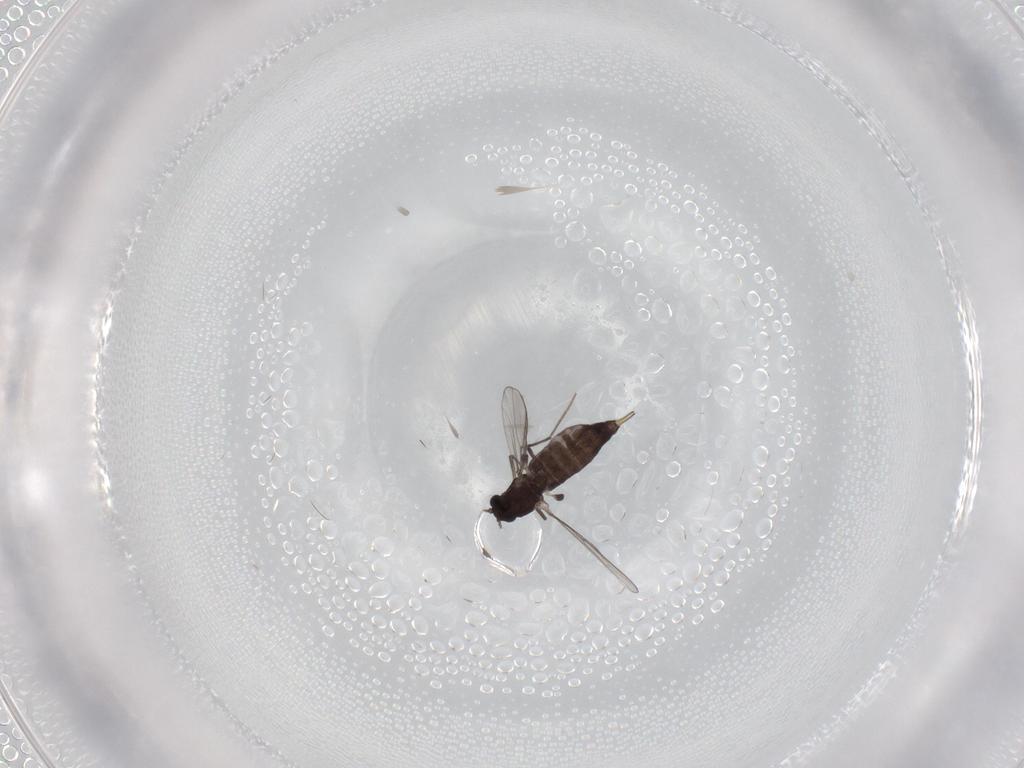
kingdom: Animalia
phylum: Arthropoda
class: Insecta
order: Diptera
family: Chironomidae
